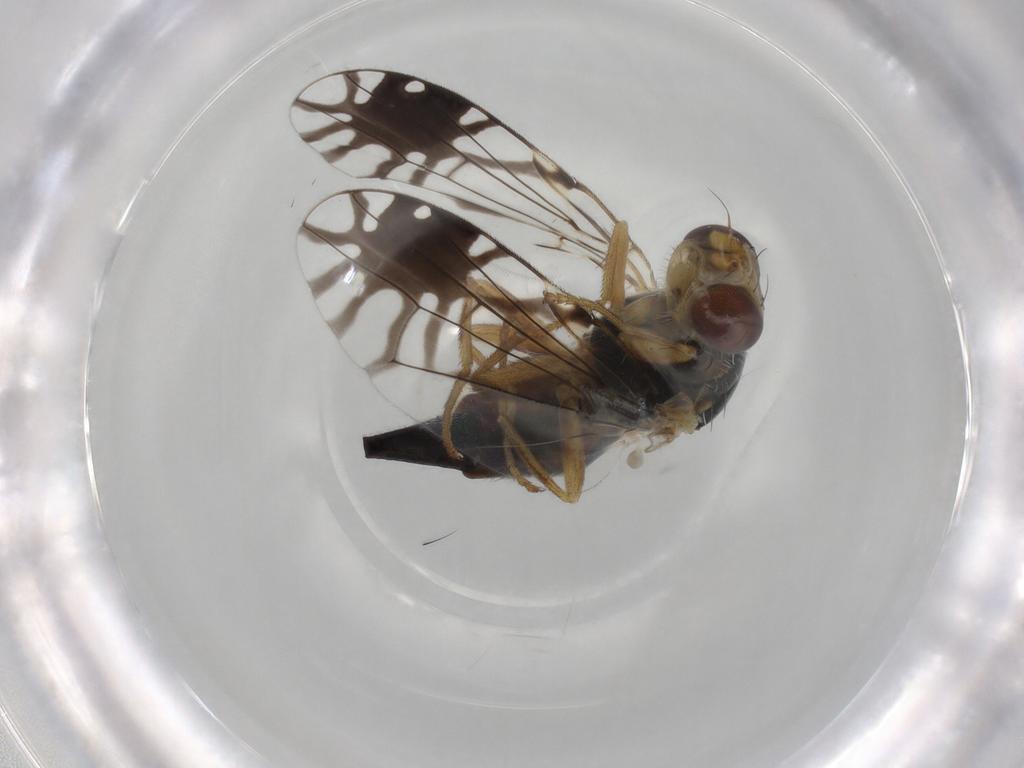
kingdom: Animalia
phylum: Arthropoda
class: Insecta
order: Diptera
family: Tephritidae
